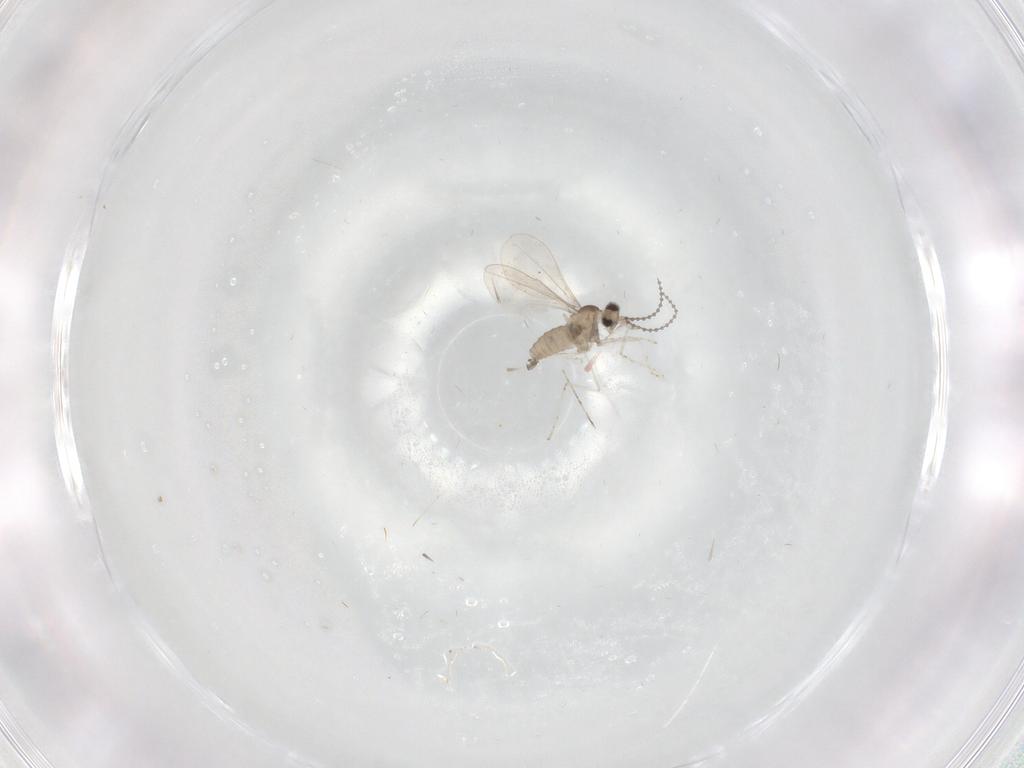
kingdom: Animalia
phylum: Arthropoda
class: Insecta
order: Diptera
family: Cecidomyiidae
